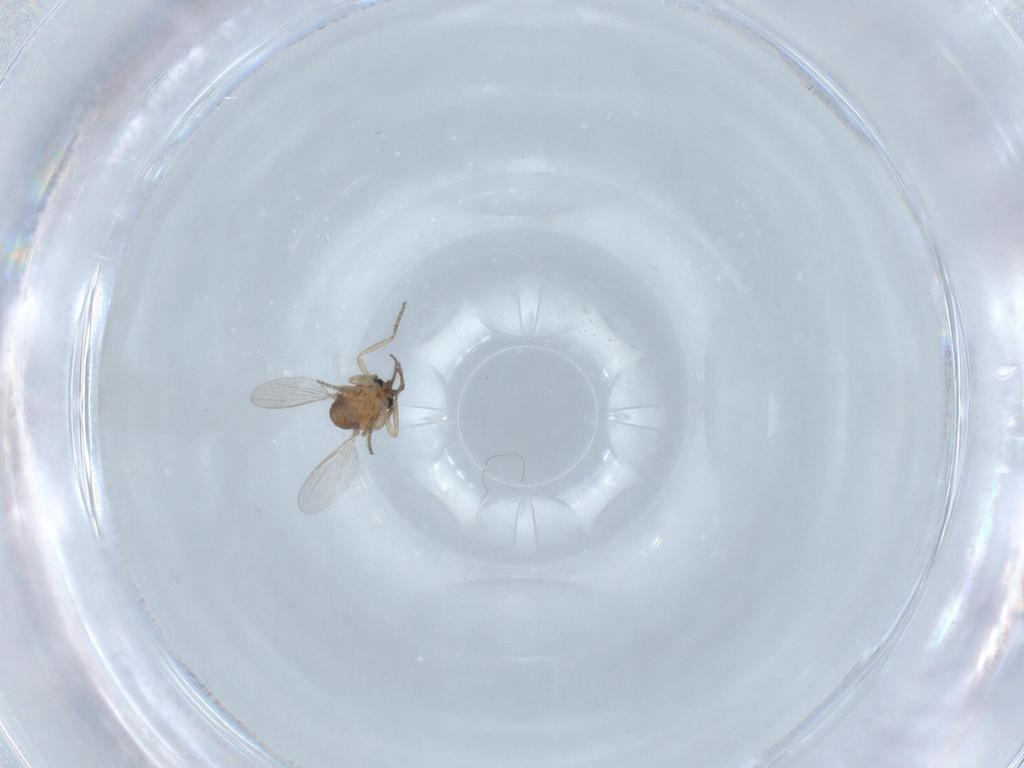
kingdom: Animalia
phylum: Arthropoda
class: Insecta
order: Diptera
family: Ceratopogonidae
